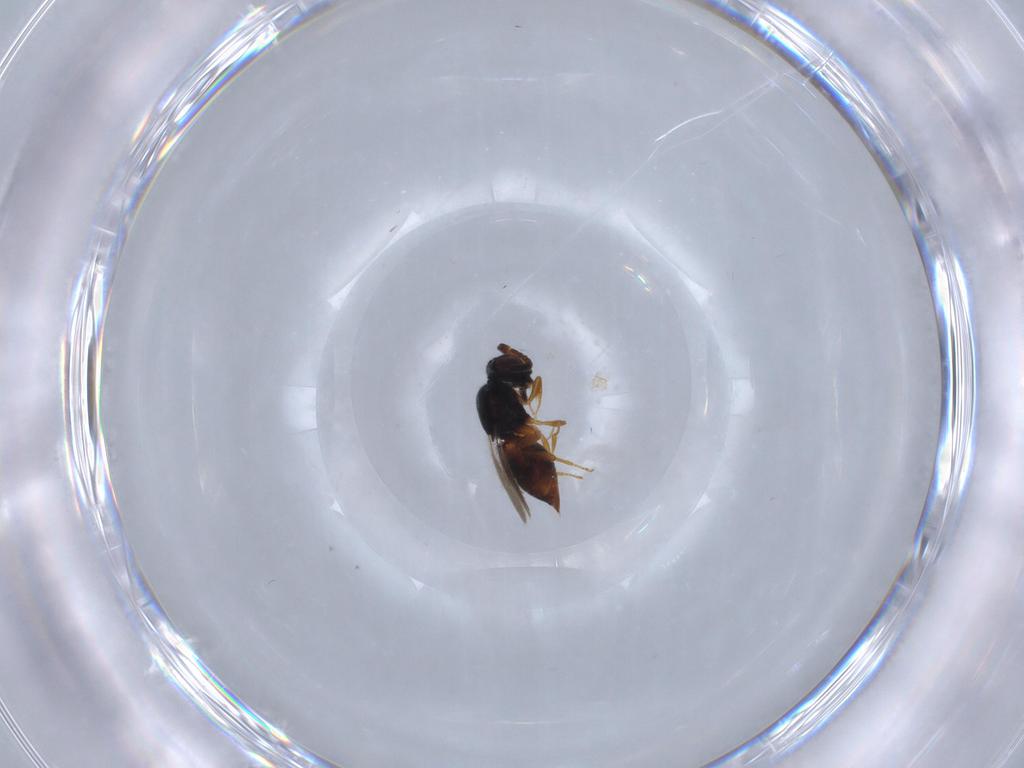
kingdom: Animalia
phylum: Arthropoda
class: Insecta
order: Hymenoptera
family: Ceraphronidae
